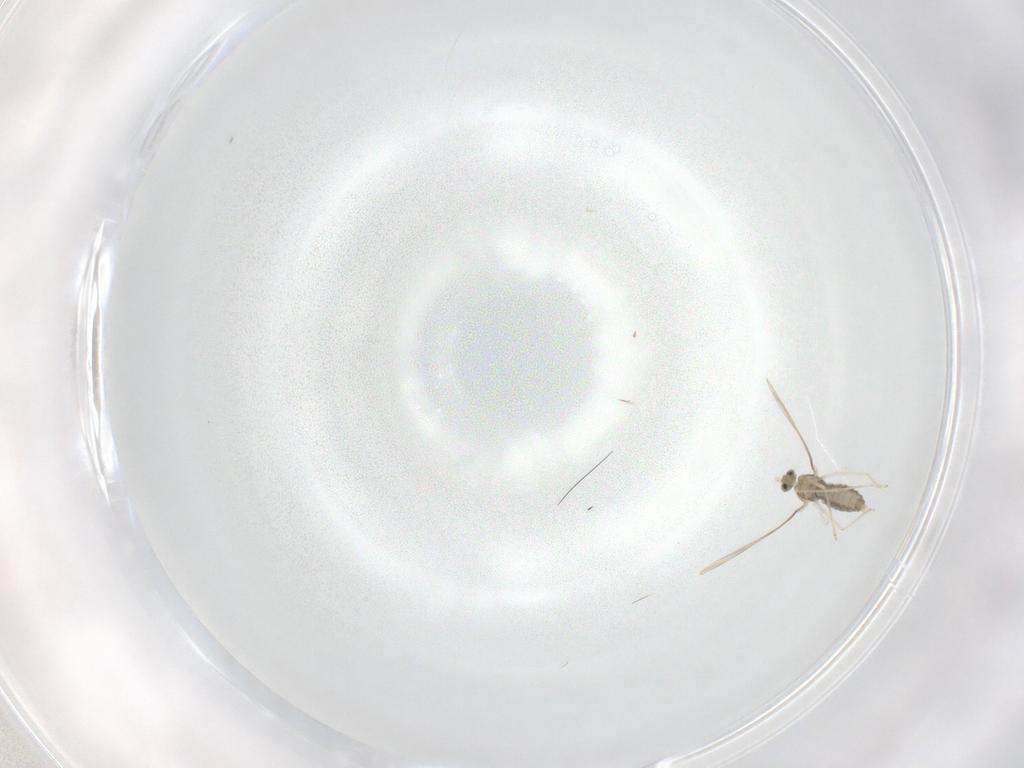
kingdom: Animalia
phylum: Arthropoda
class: Insecta
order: Diptera
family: Cecidomyiidae
